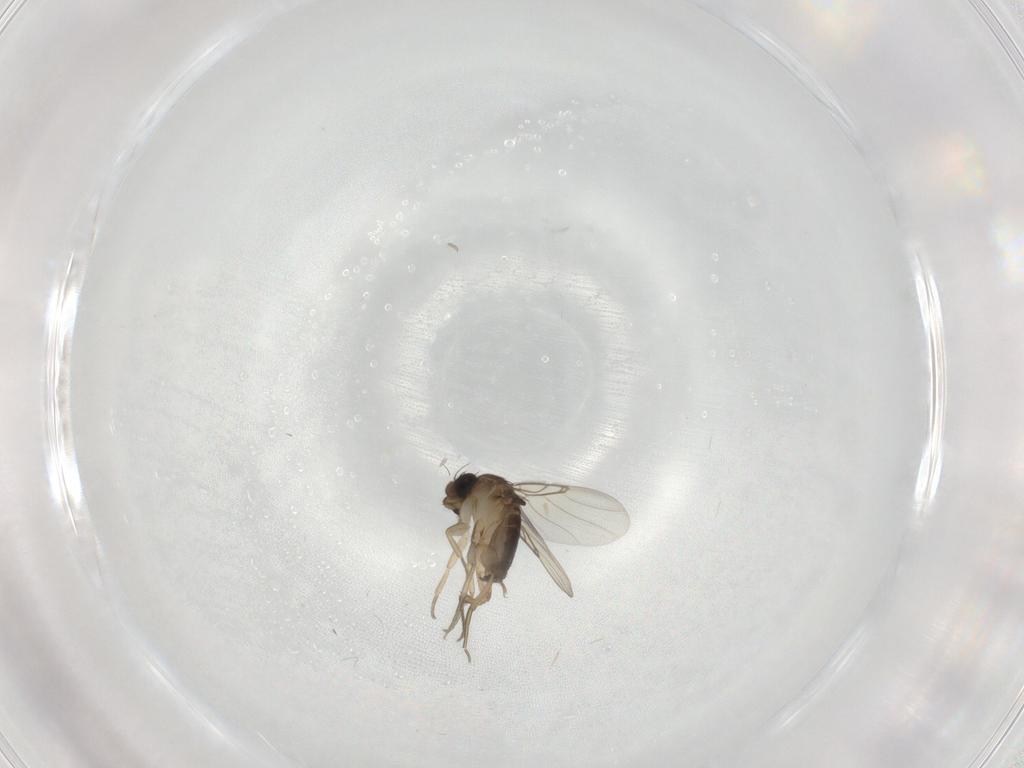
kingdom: Animalia
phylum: Arthropoda
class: Insecta
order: Diptera
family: Phoridae
